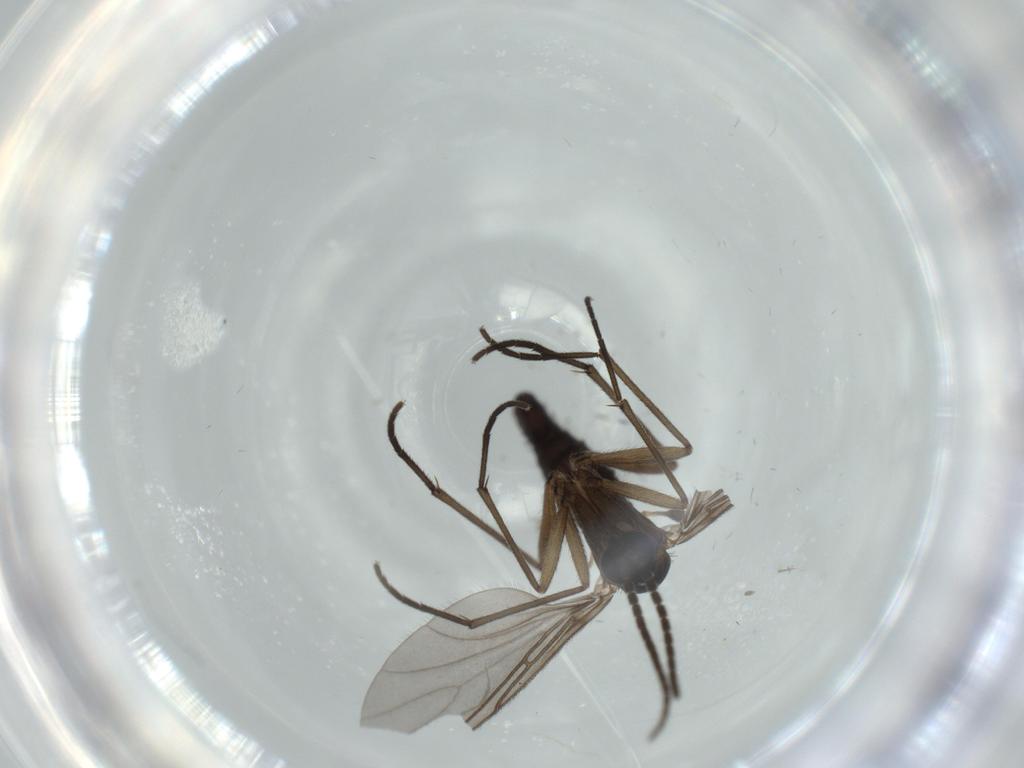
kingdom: Animalia
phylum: Arthropoda
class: Insecta
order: Diptera
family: Sciaridae
